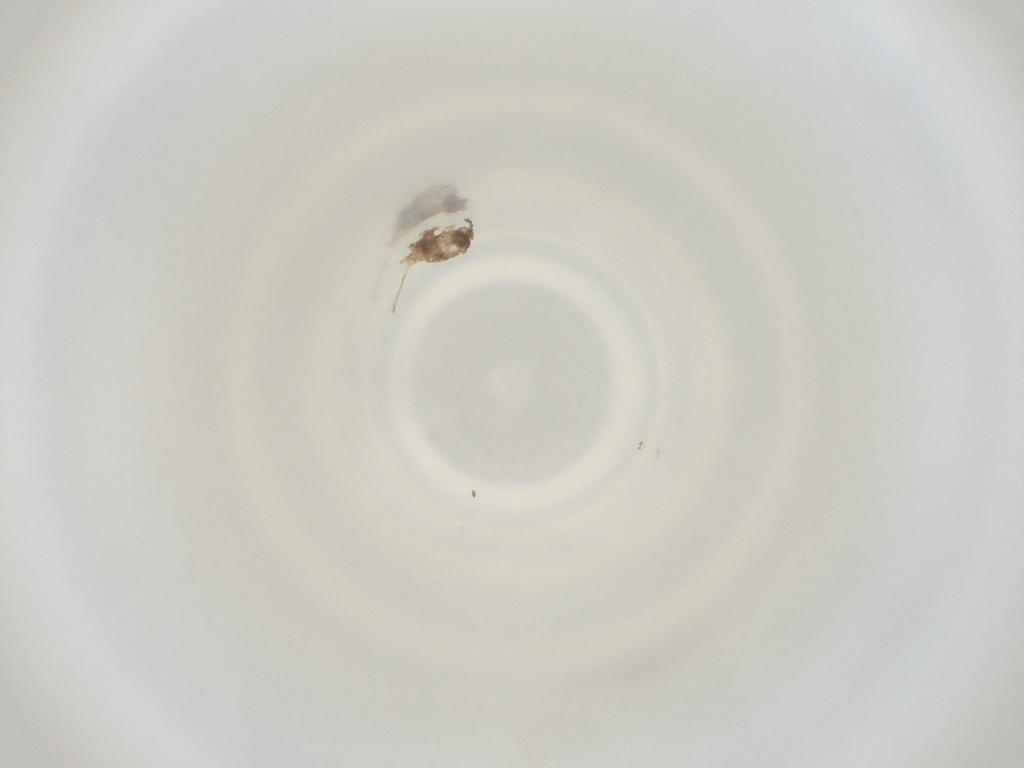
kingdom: Animalia
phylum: Arthropoda
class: Insecta
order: Diptera
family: Cecidomyiidae
